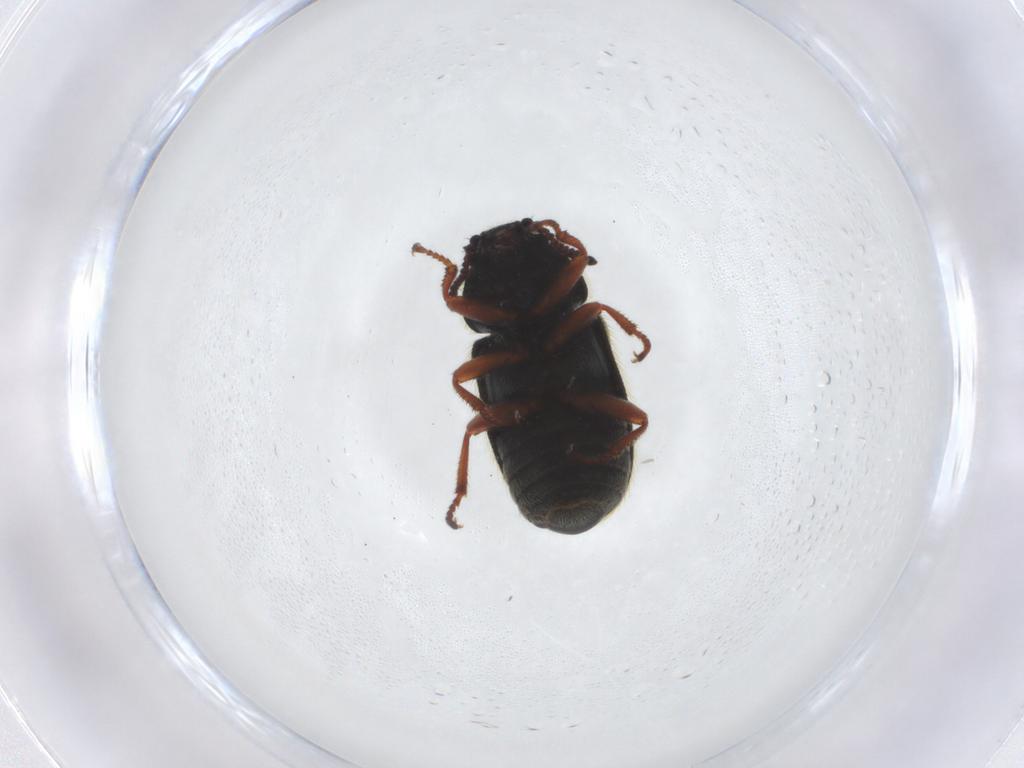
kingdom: Animalia
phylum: Arthropoda
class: Insecta
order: Coleoptera
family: Melyridae
